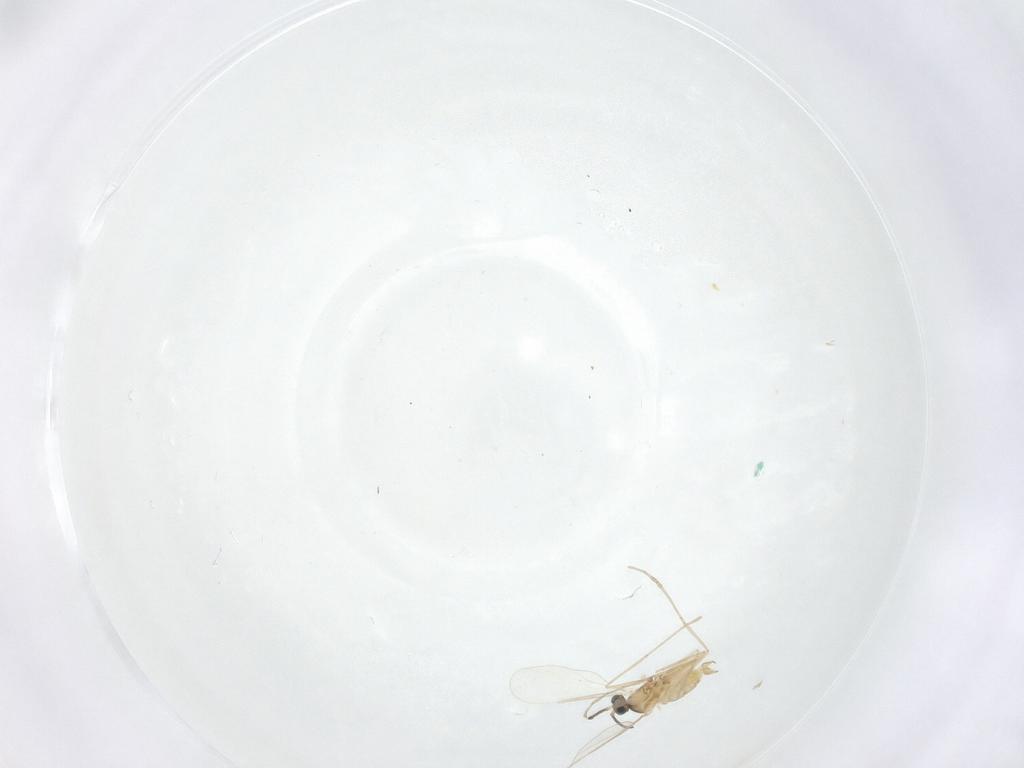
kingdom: Animalia
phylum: Arthropoda
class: Insecta
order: Diptera
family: Cecidomyiidae
